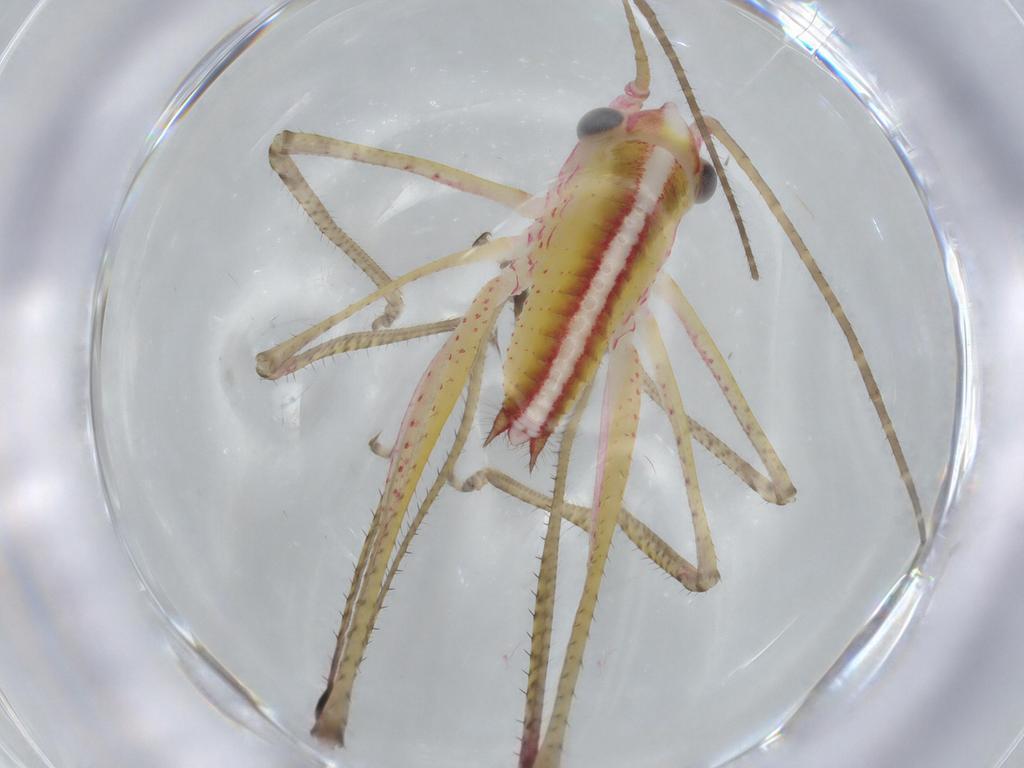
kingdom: Animalia
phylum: Arthropoda
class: Insecta
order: Orthoptera
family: Tettigoniidae
